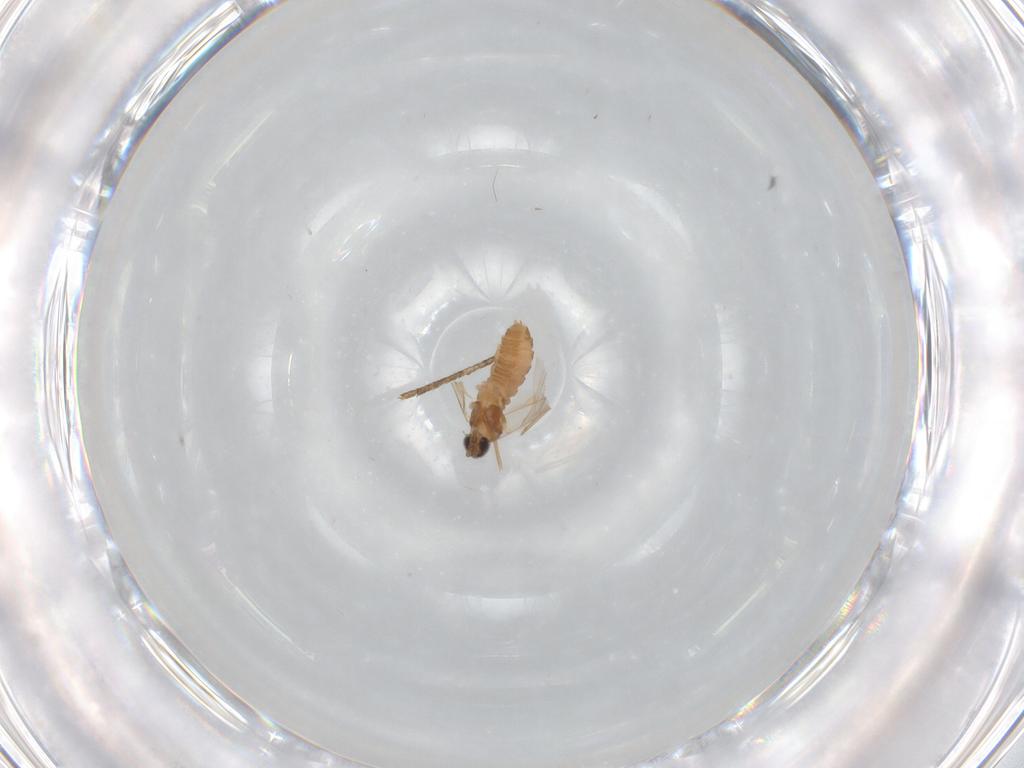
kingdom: Animalia
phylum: Arthropoda
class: Insecta
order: Diptera
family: Cecidomyiidae
